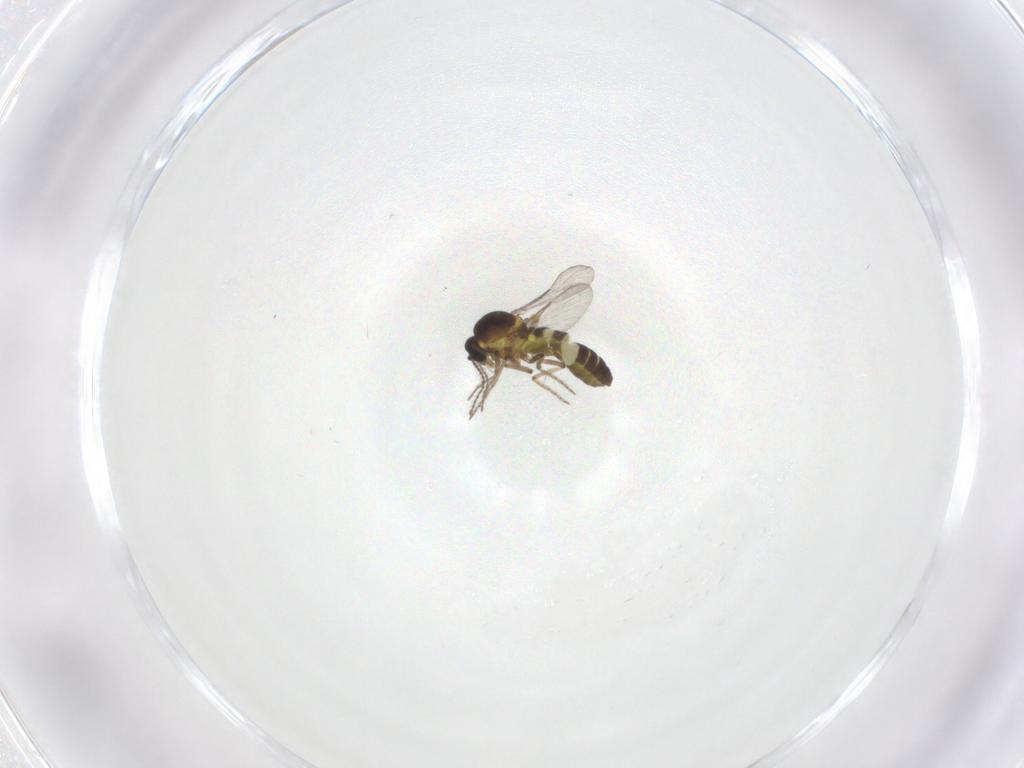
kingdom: Animalia
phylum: Arthropoda
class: Insecta
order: Diptera
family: Ceratopogonidae
